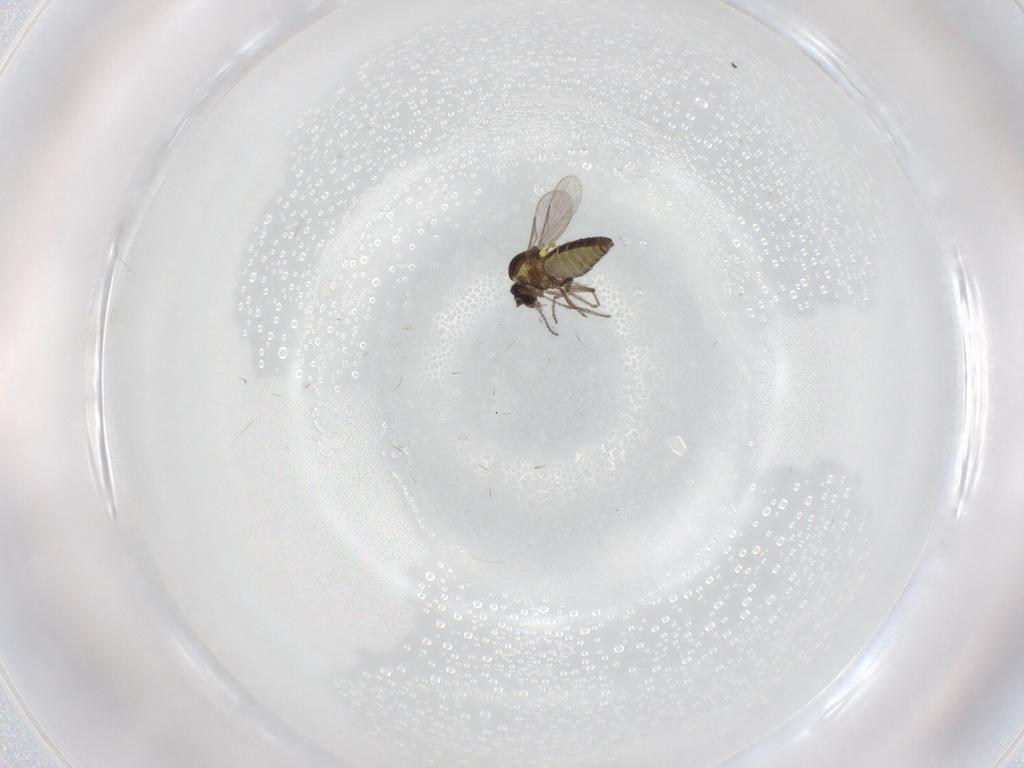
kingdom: Animalia
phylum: Arthropoda
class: Insecta
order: Diptera
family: Ceratopogonidae
